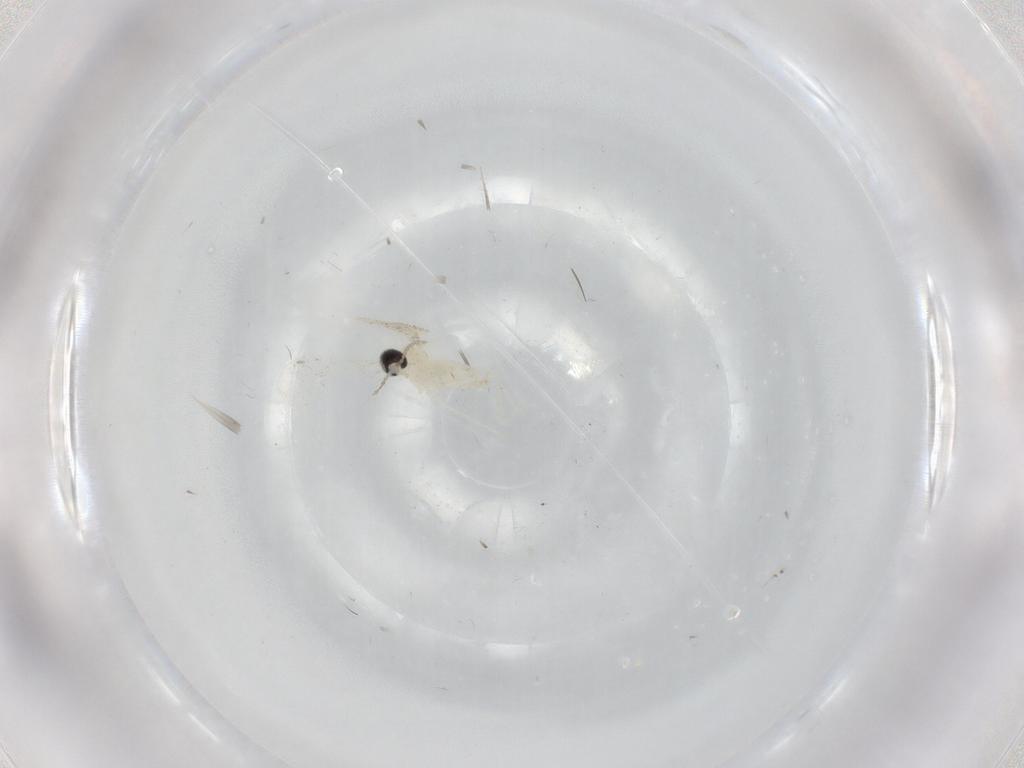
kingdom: Animalia
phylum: Arthropoda
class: Insecta
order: Diptera
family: Cecidomyiidae
